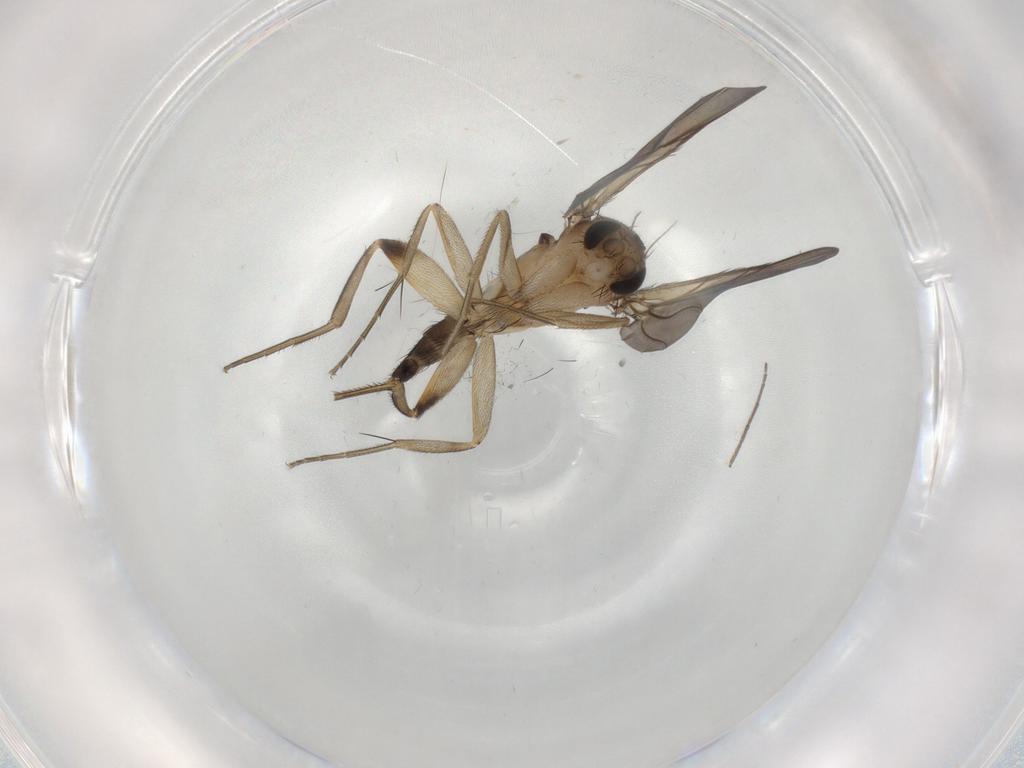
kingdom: Animalia
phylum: Arthropoda
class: Insecta
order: Diptera
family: Phoridae
